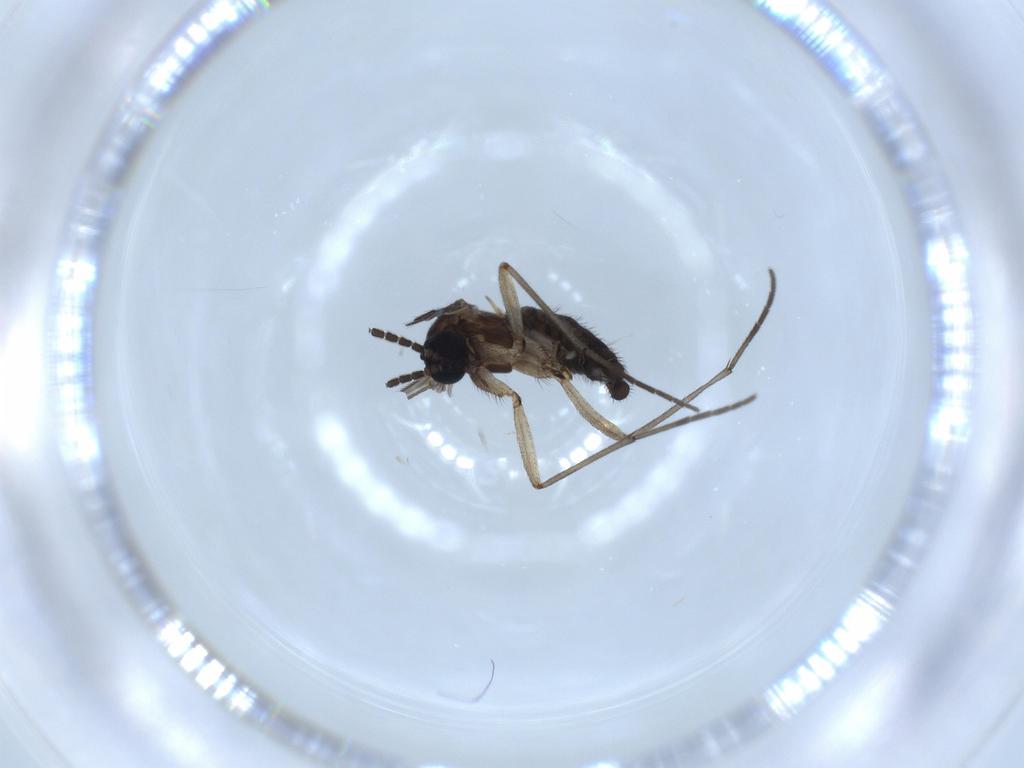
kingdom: Animalia
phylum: Arthropoda
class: Insecta
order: Diptera
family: Sciaridae
